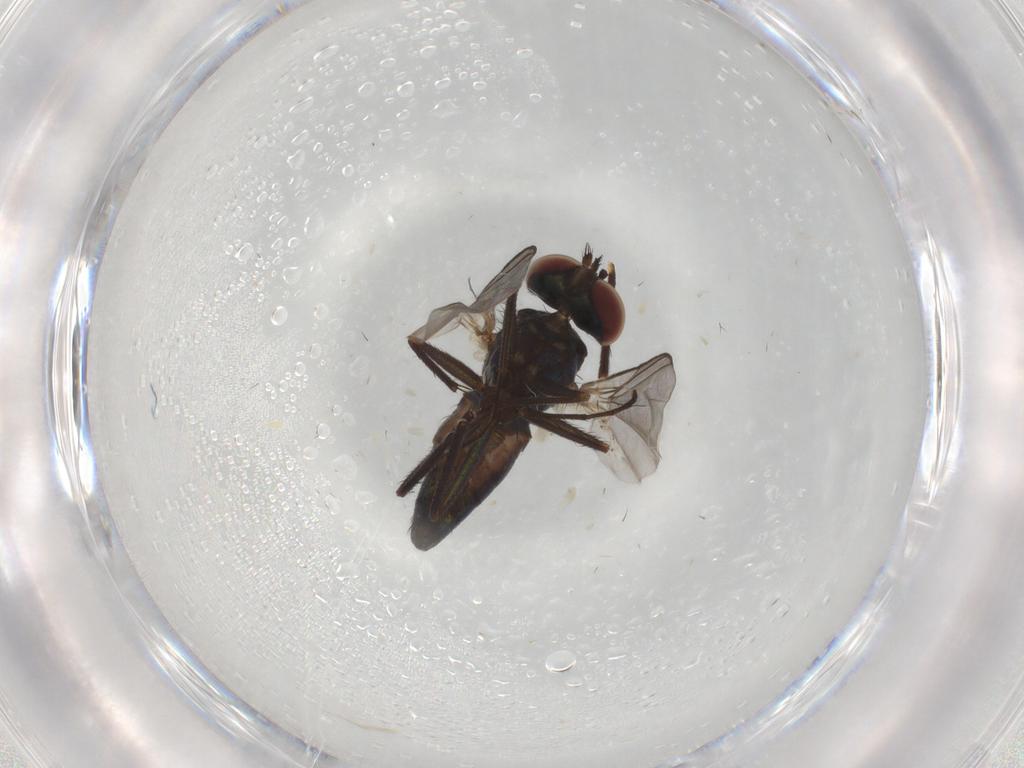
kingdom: Animalia
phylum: Arthropoda
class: Insecta
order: Diptera
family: Dolichopodidae
